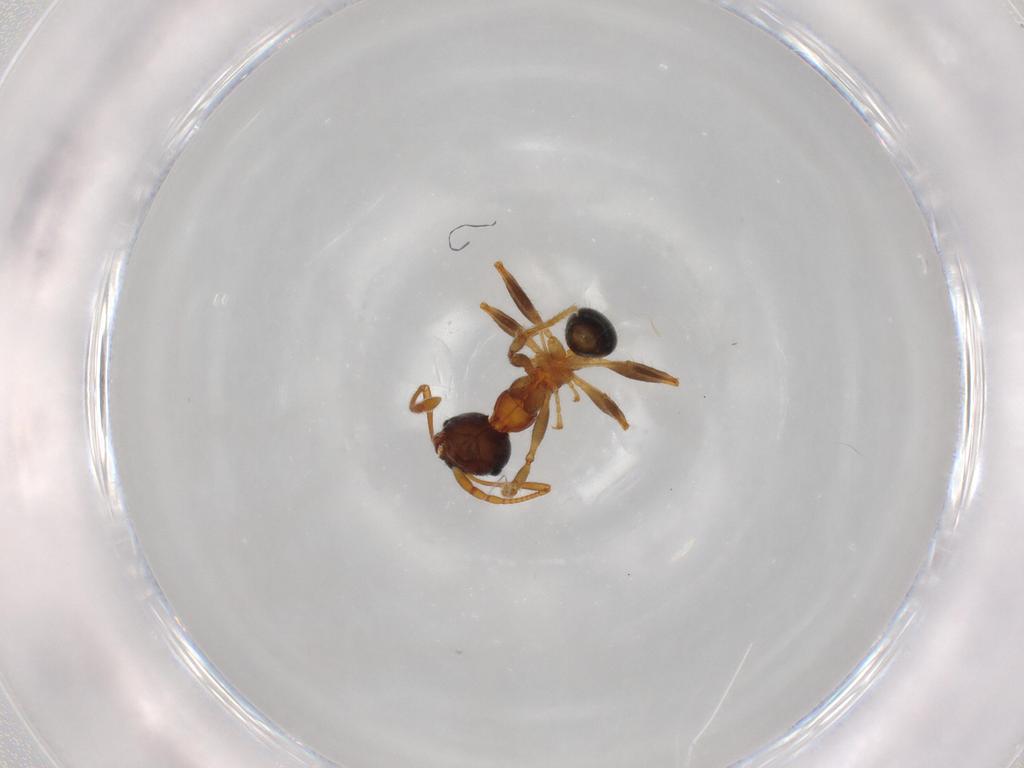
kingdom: Animalia
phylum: Arthropoda
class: Insecta
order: Hymenoptera
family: Formicidae
